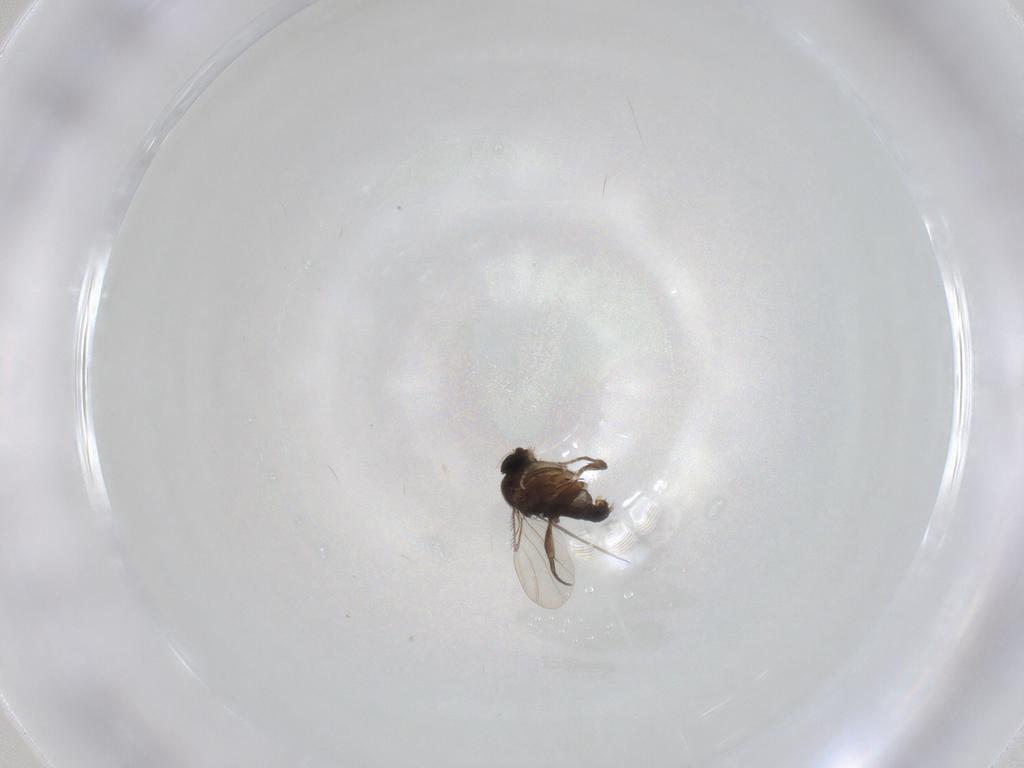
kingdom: Animalia
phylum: Arthropoda
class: Insecta
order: Diptera
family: Phoridae
